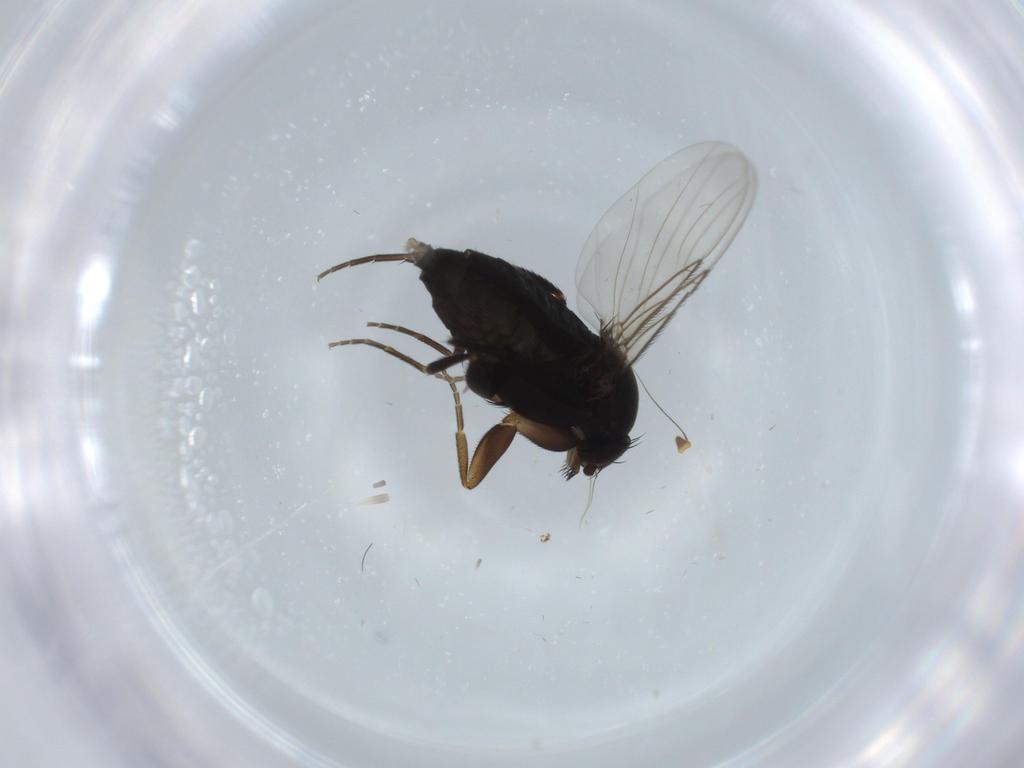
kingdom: Animalia
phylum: Arthropoda
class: Insecta
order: Diptera
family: Phoridae
